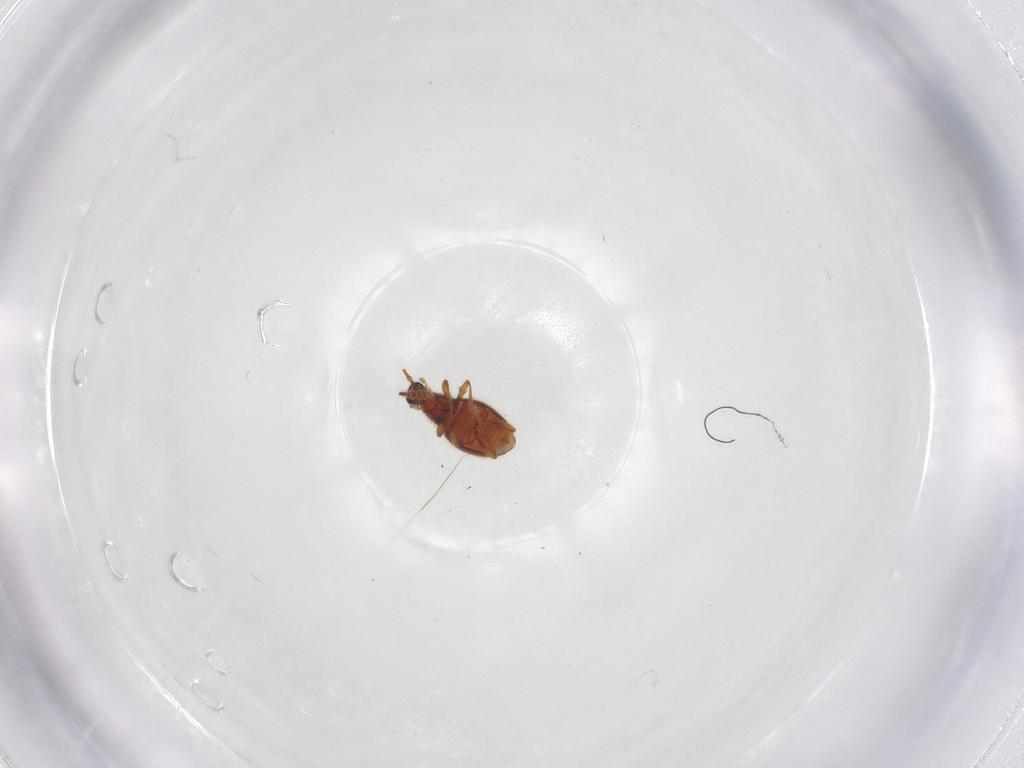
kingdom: Animalia
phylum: Arthropoda
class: Insecta
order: Coleoptera
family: Staphylinidae
